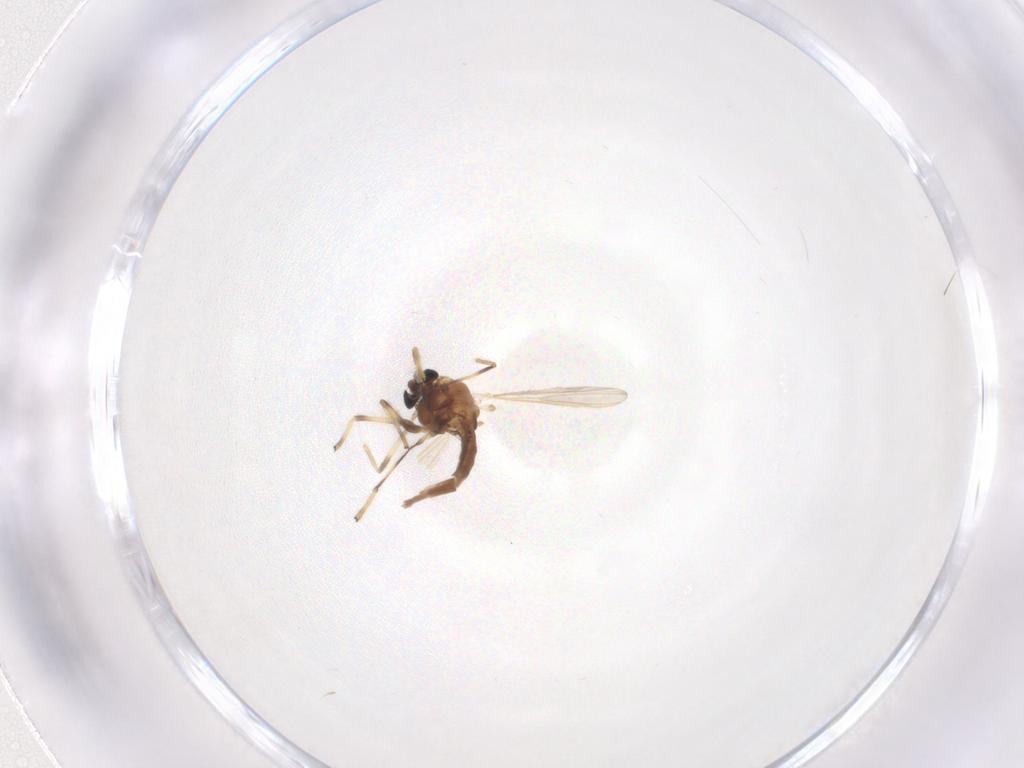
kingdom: Animalia
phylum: Arthropoda
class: Insecta
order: Diptera
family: Chironomidae
